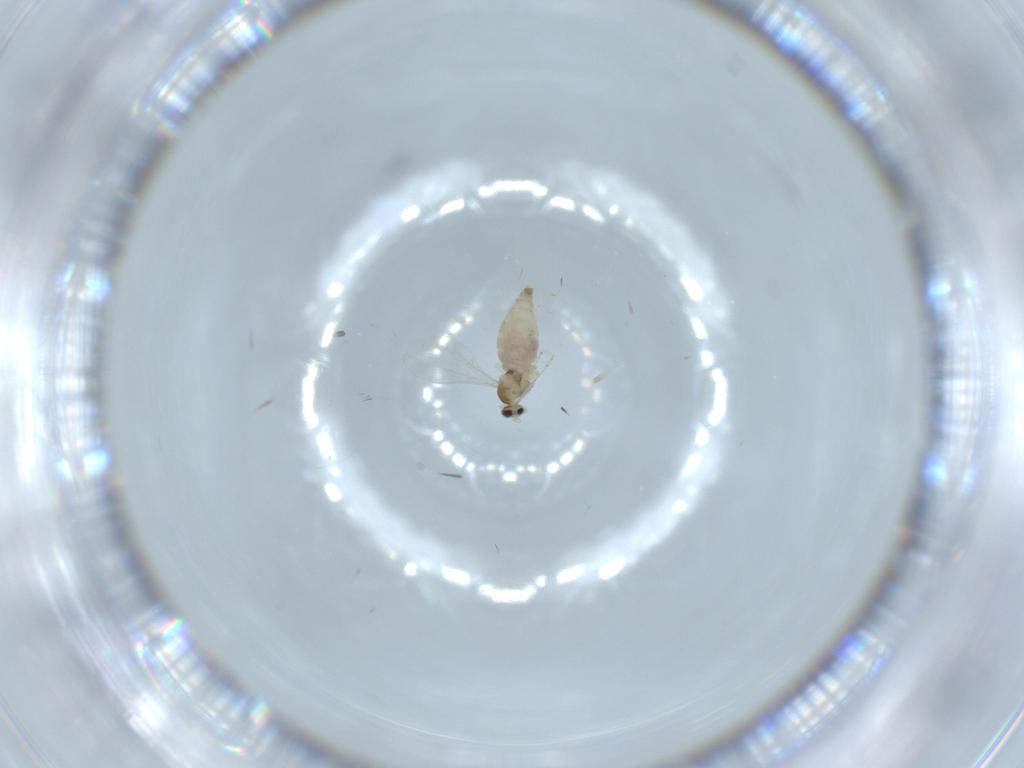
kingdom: Animalia
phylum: Arthropoda
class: Insecta
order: Diptera
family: Cecidomyiidae
